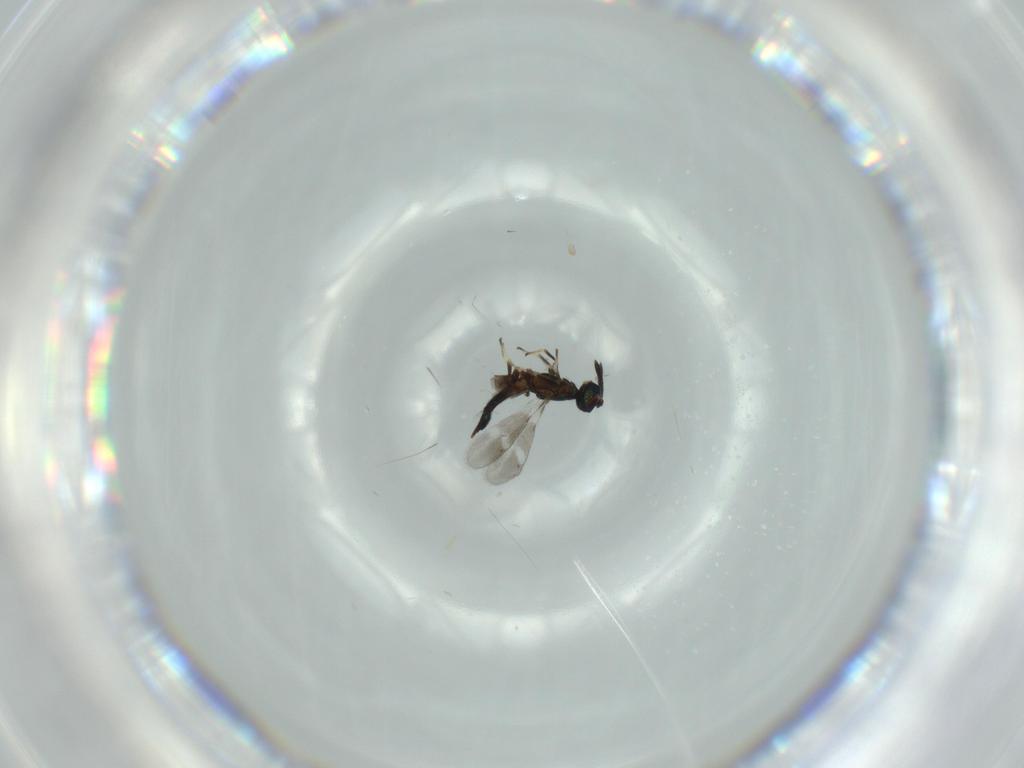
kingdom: Animalia
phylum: Arthropoda
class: Insecta
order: Hymenoptera
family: Eupelmidae
